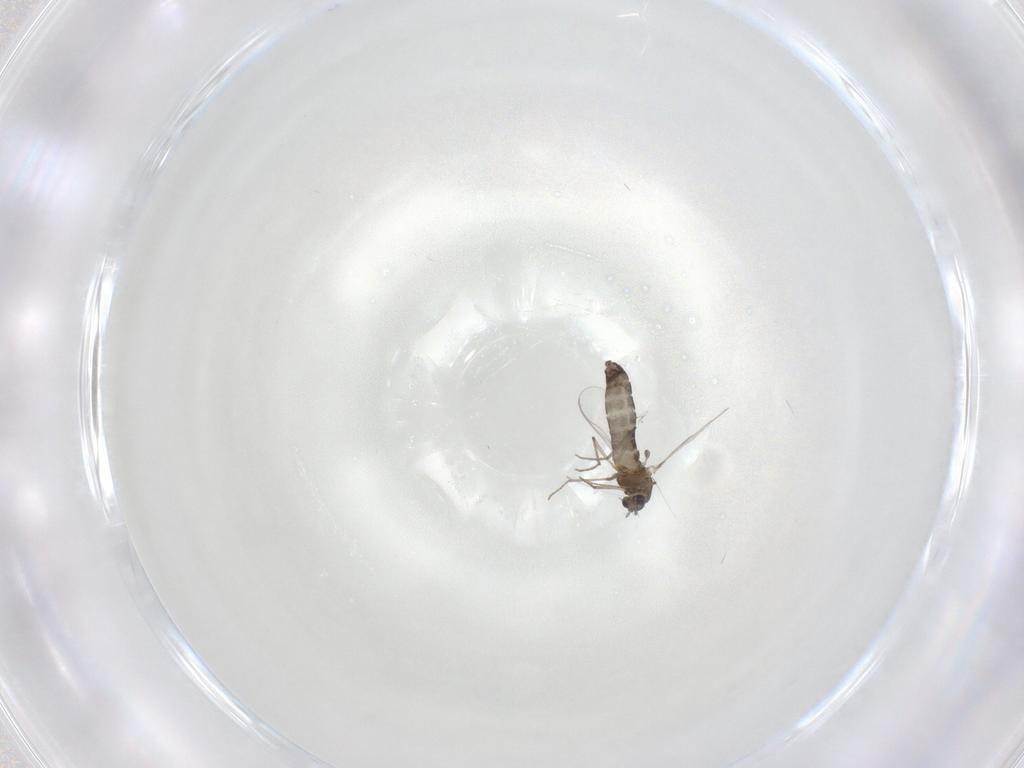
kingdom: Animalia
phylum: Arthropoda
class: Insecta
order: Diptera
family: Chironomidae
